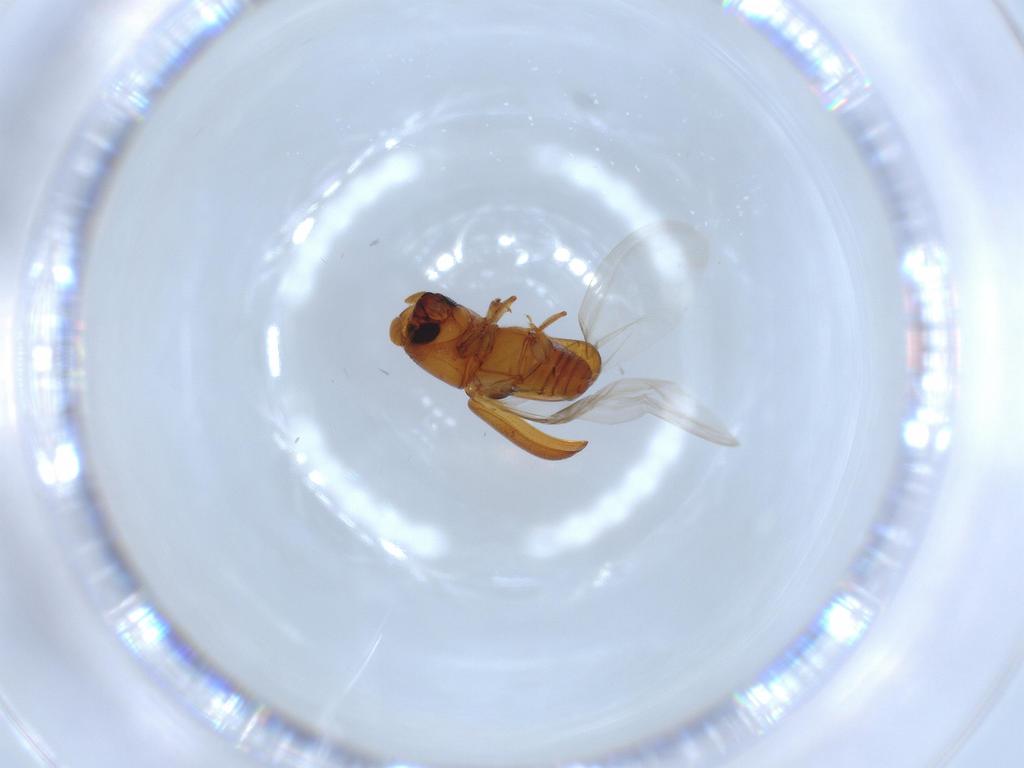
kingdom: Animalia
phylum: Arthropoda
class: Insecta
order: Coleoptera
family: Curculionidae
